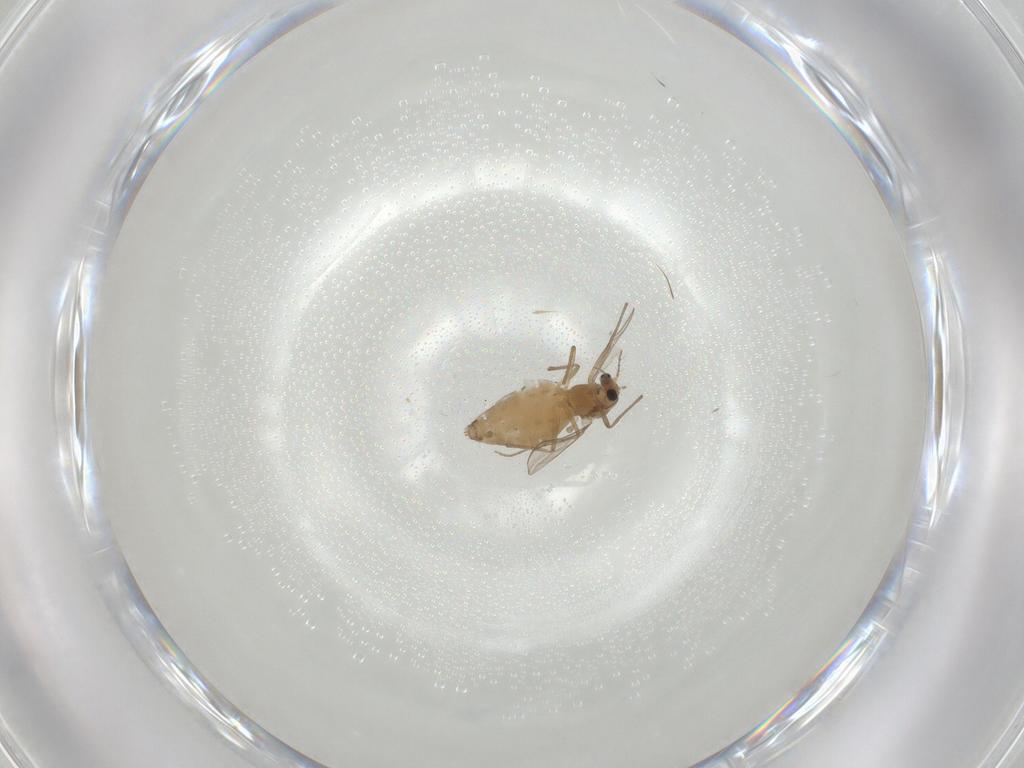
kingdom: Animalia
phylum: Arthropoda
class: Insecta
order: Diptera
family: Chironomidae
